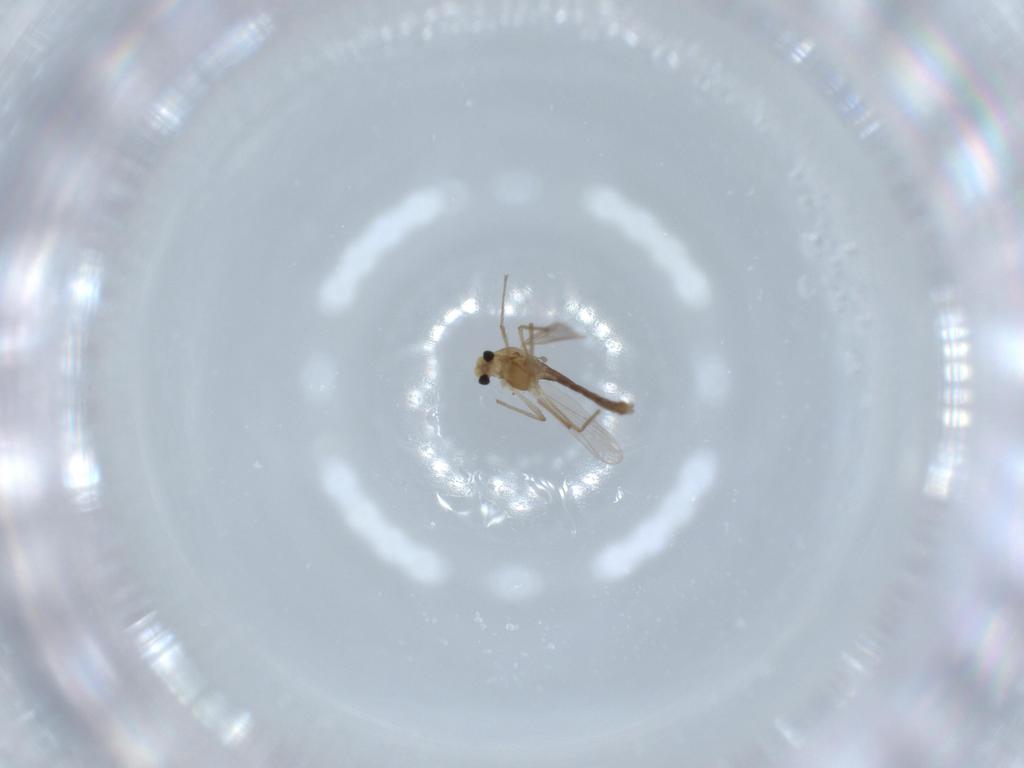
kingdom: Animalia
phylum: Arthropoda
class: Insecta
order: Diptera
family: Chironomidae
